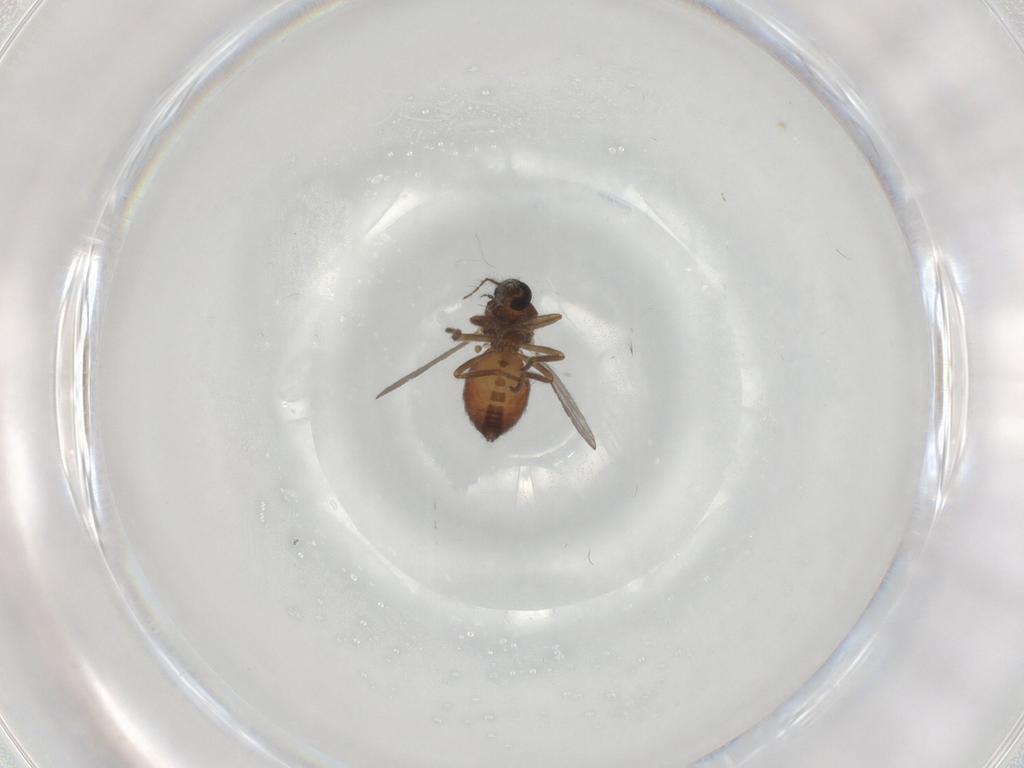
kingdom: Animalia
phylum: Arthropoda
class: Insecta
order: Diptera
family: Ceratopogonidae
